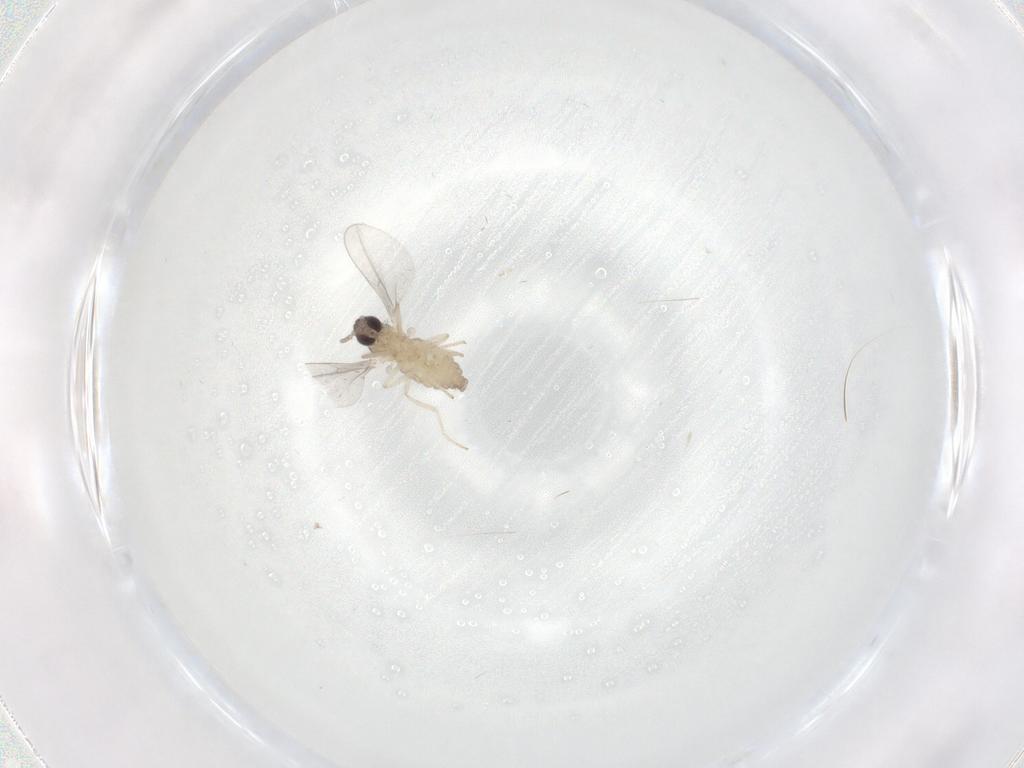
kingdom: Animalia
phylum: Arthropoda
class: Insecta
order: Diptera
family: Cecidomyiidae
